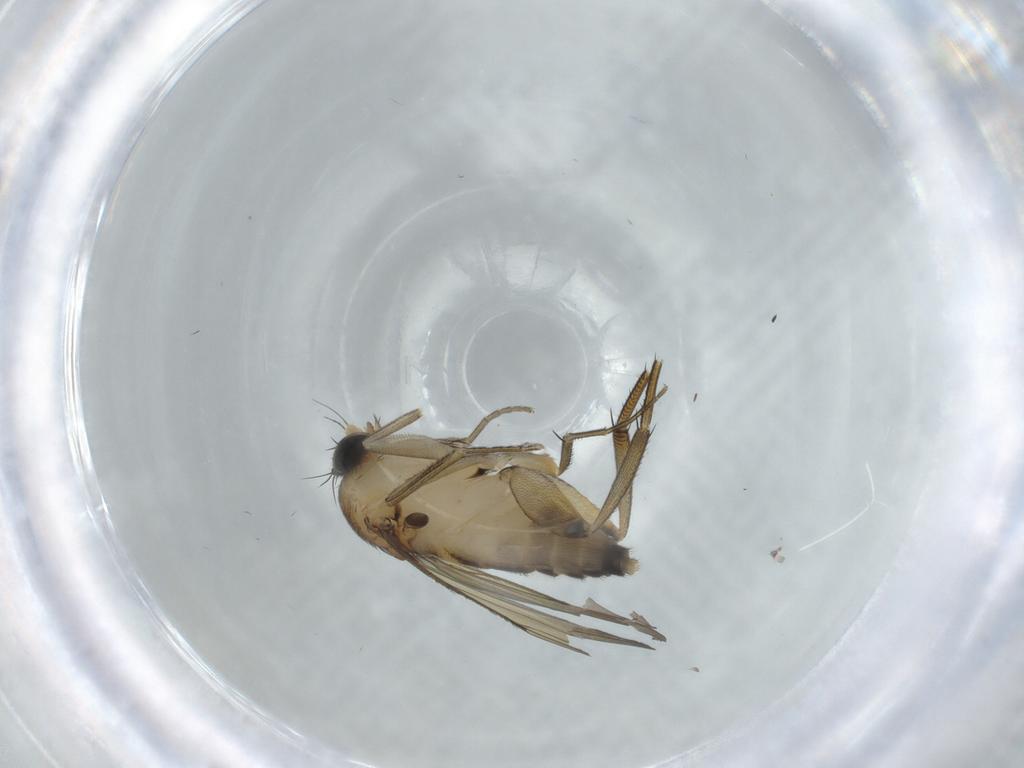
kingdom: Animalia
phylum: Arthropoda
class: Insecta
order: Diptera
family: Phoridae
